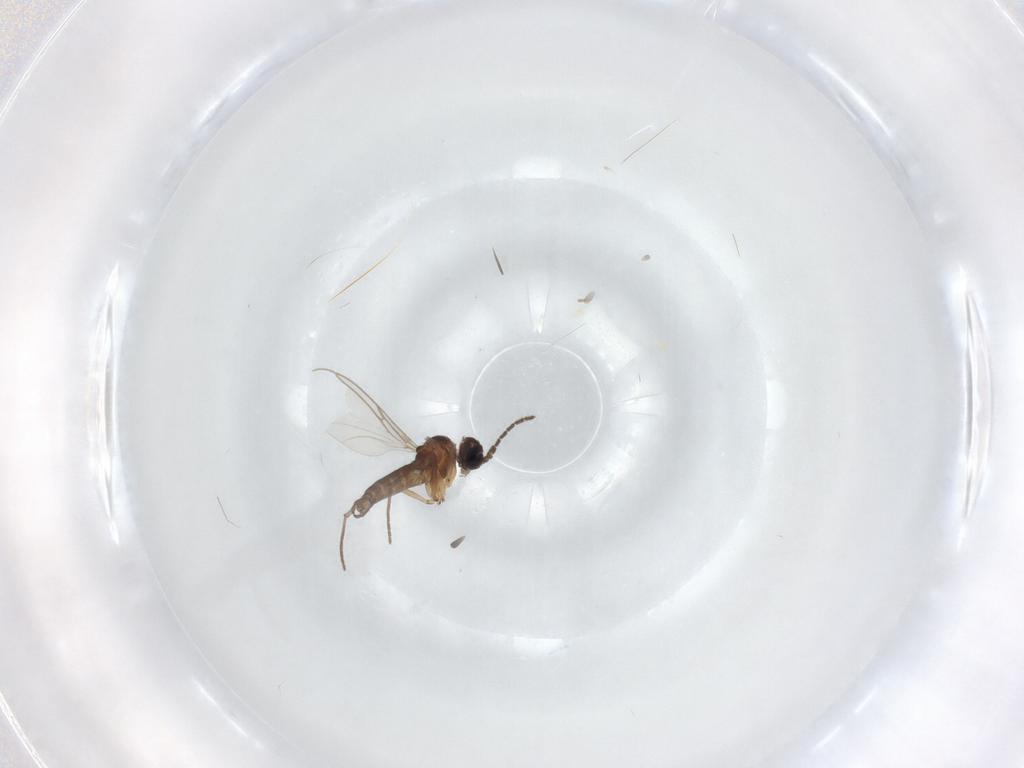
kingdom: Animalia
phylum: Arthropoda
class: Insecta
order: Diptera
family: Sciaridae
